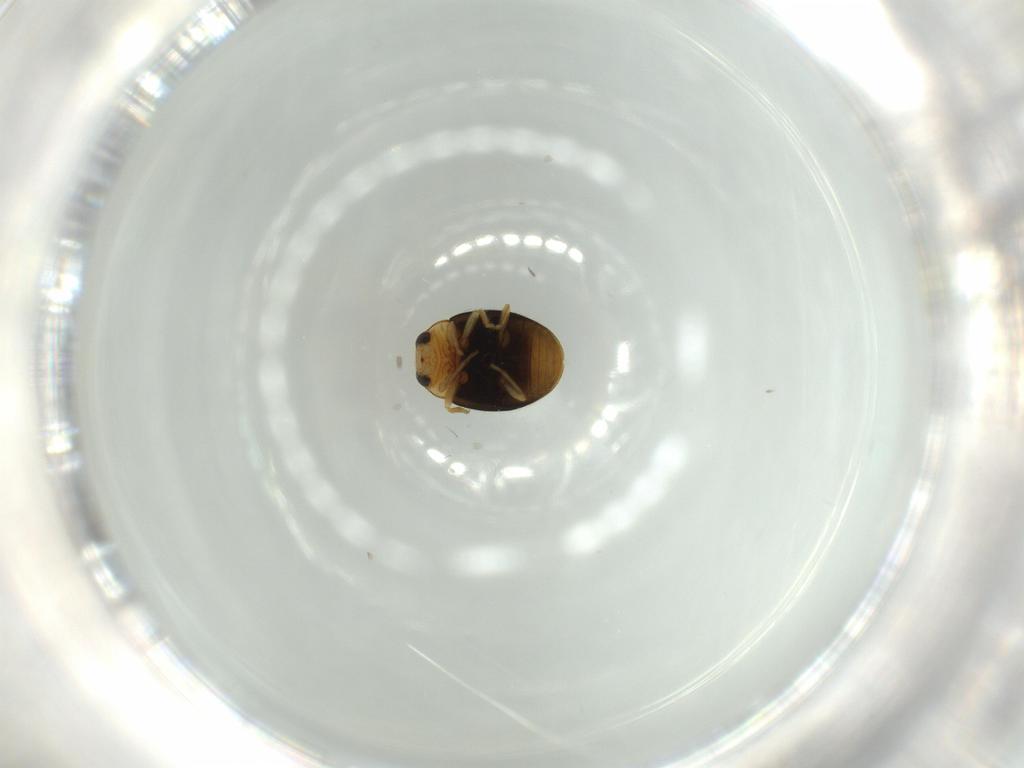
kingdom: Animalia
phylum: Arthropoda
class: Insecta
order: Coleoptera
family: Coccinellidae
